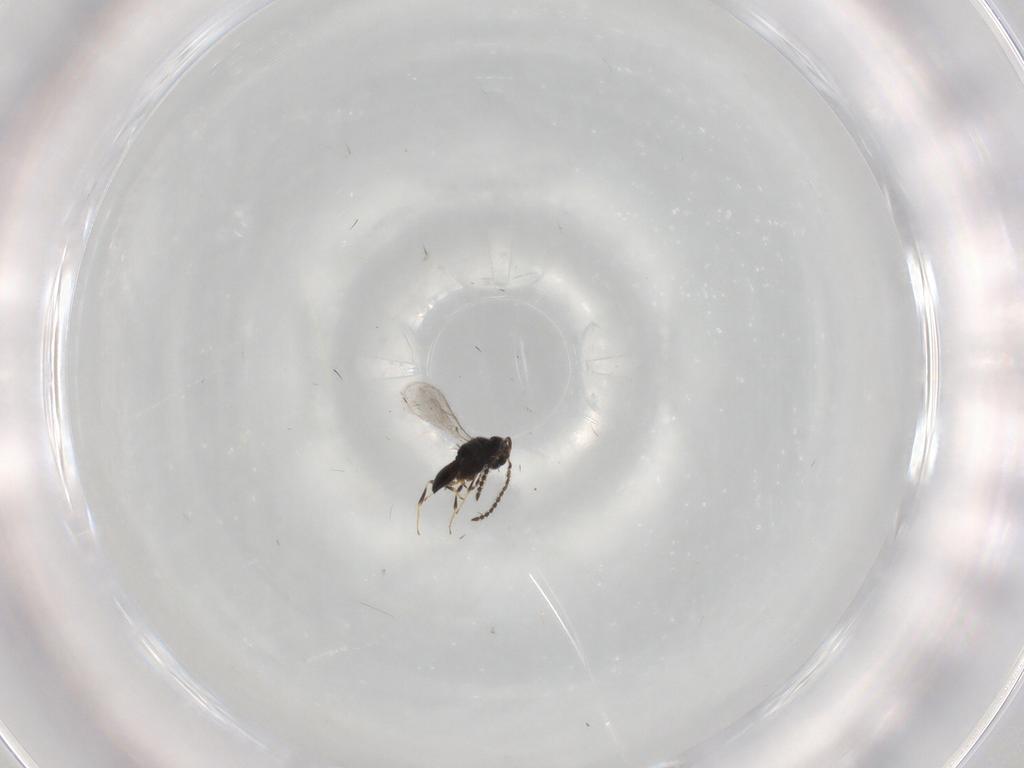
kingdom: Animalia
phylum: Arthropoda
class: Insecta
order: Hymenoptera
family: Scelionidae
